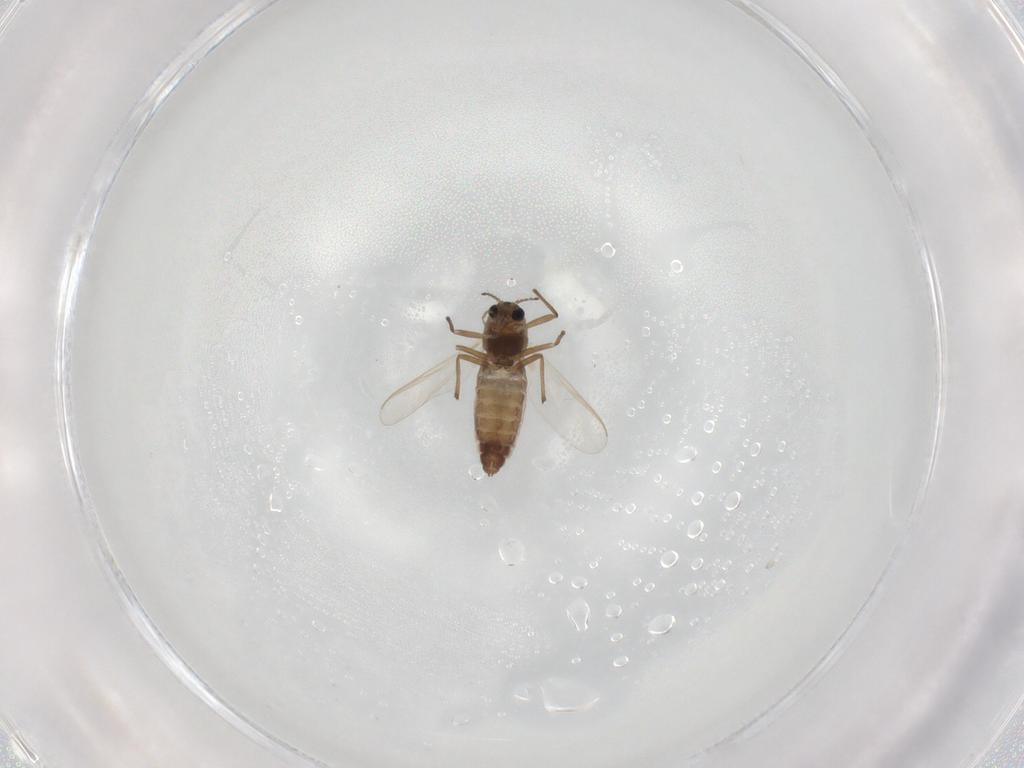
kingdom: Animalia
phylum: Arthropoda
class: Insecta
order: Diptera
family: Chironomidae
